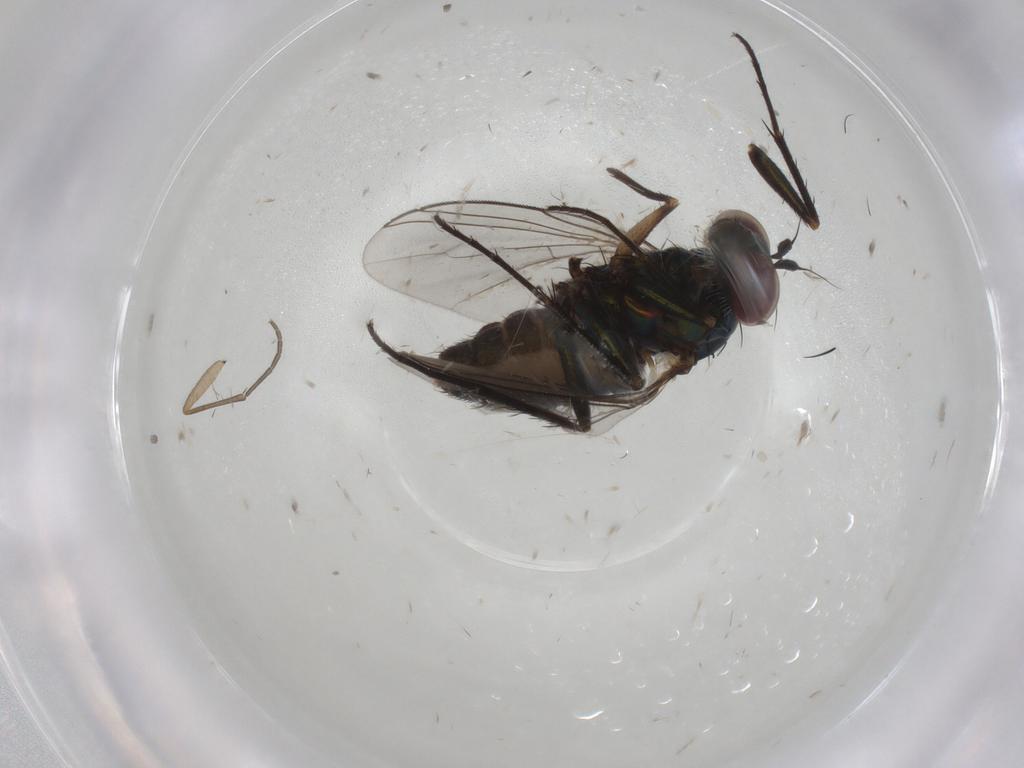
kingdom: Animalia
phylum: Arthropoda
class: Insecta
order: Diptera
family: Dolichopodidae
